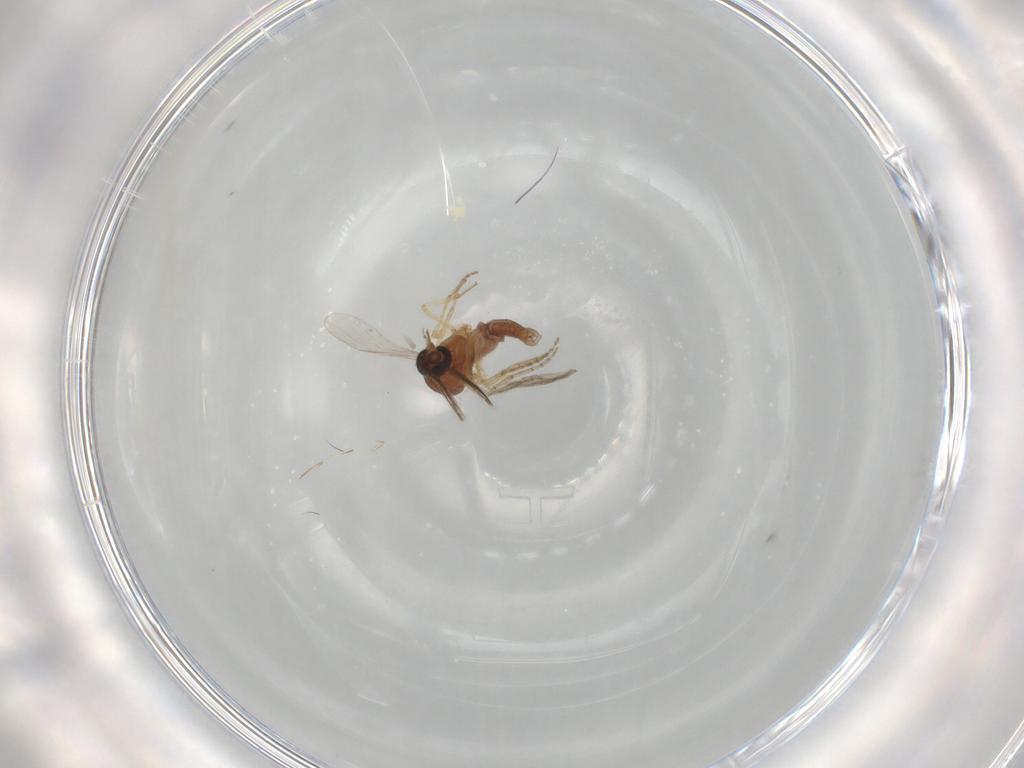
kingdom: Animalia
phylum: Arthropoda
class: Insecta
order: Diptera
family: Ceratopogonidae
